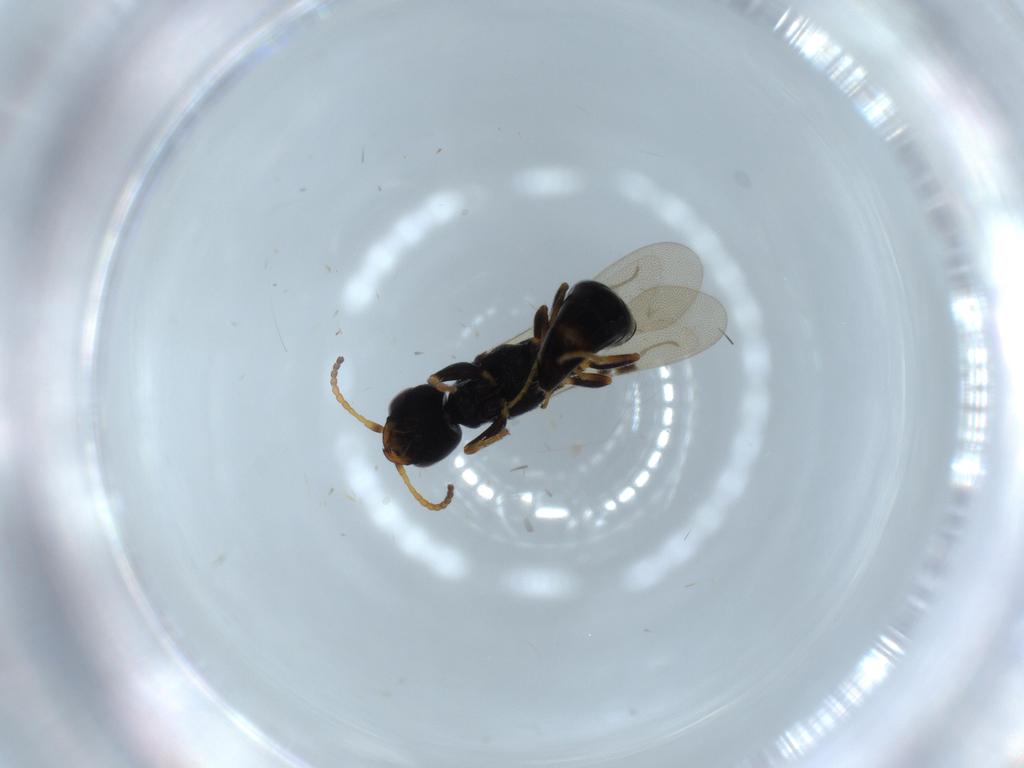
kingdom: Animalia
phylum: Arthropoda
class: Insecta
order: Hymenoptera
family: Bethylidae
